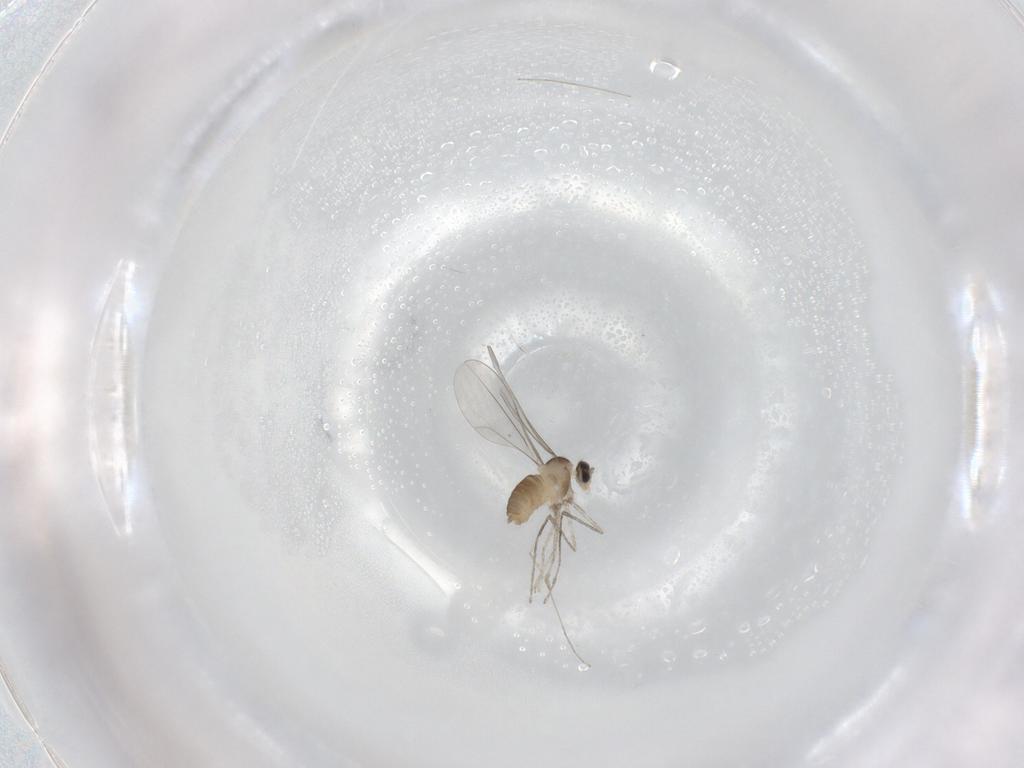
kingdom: Animalia
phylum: Arthropoda
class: Insecta
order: Diptera
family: Cecidomyiidae
